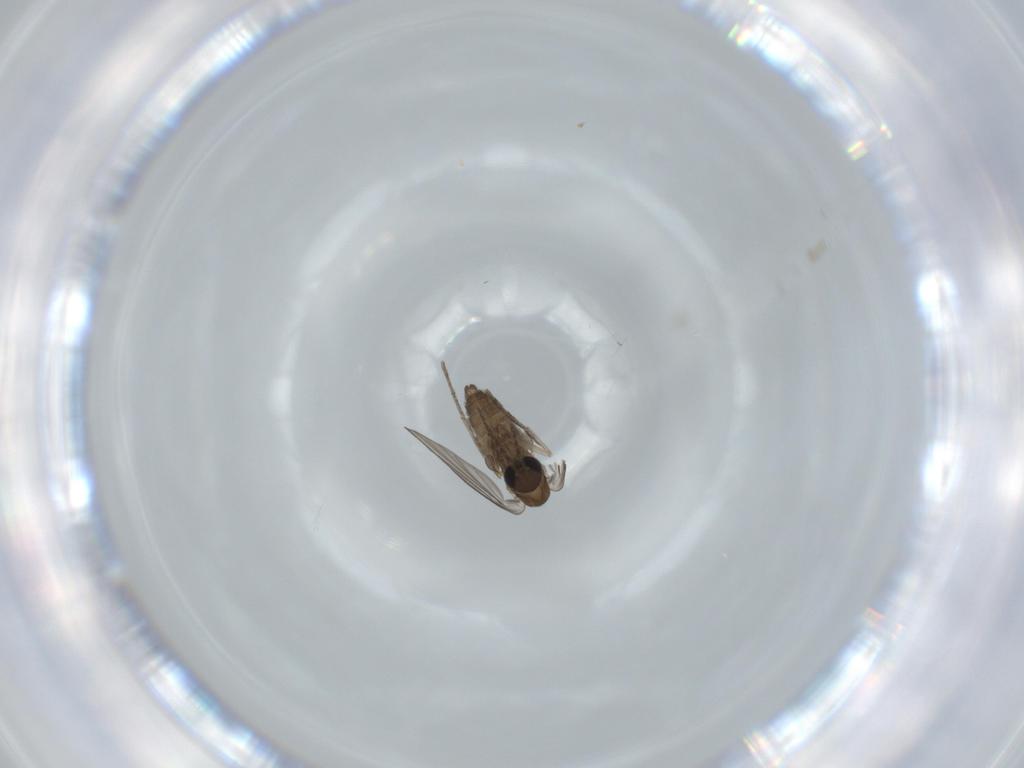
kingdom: Animalia
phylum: Arthropoda
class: Insecta
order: Diptera
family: Psychodidae
